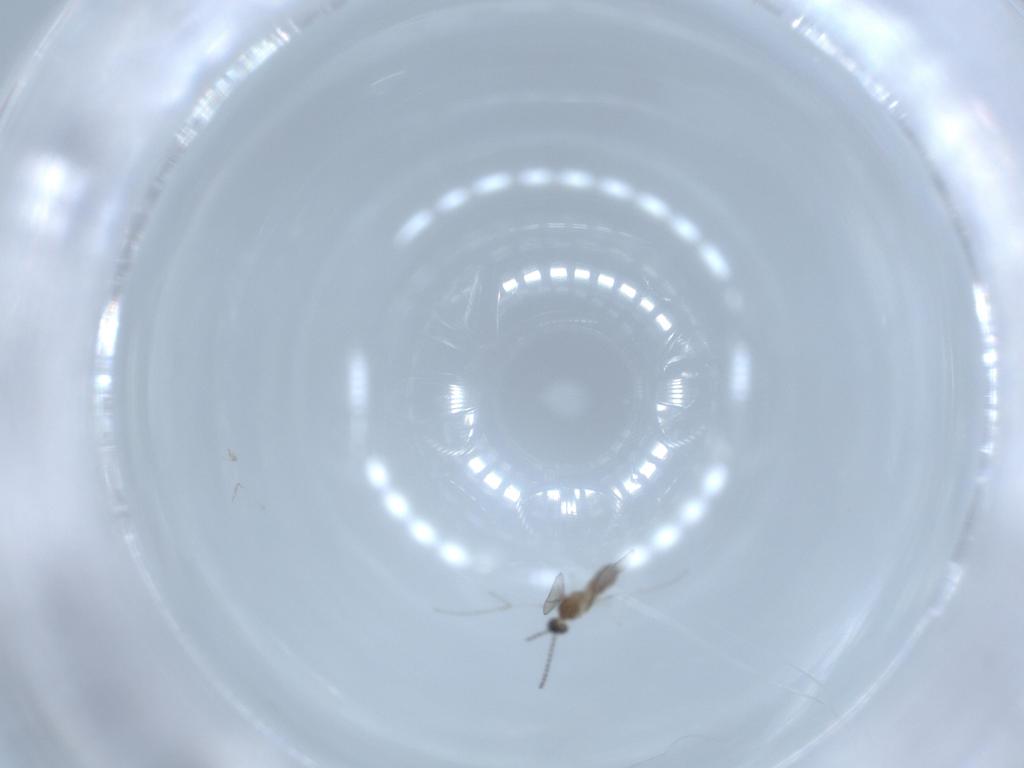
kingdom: Animalia
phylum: Arthropoda
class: Insecta
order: Diptera
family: Cecidomyiidae
